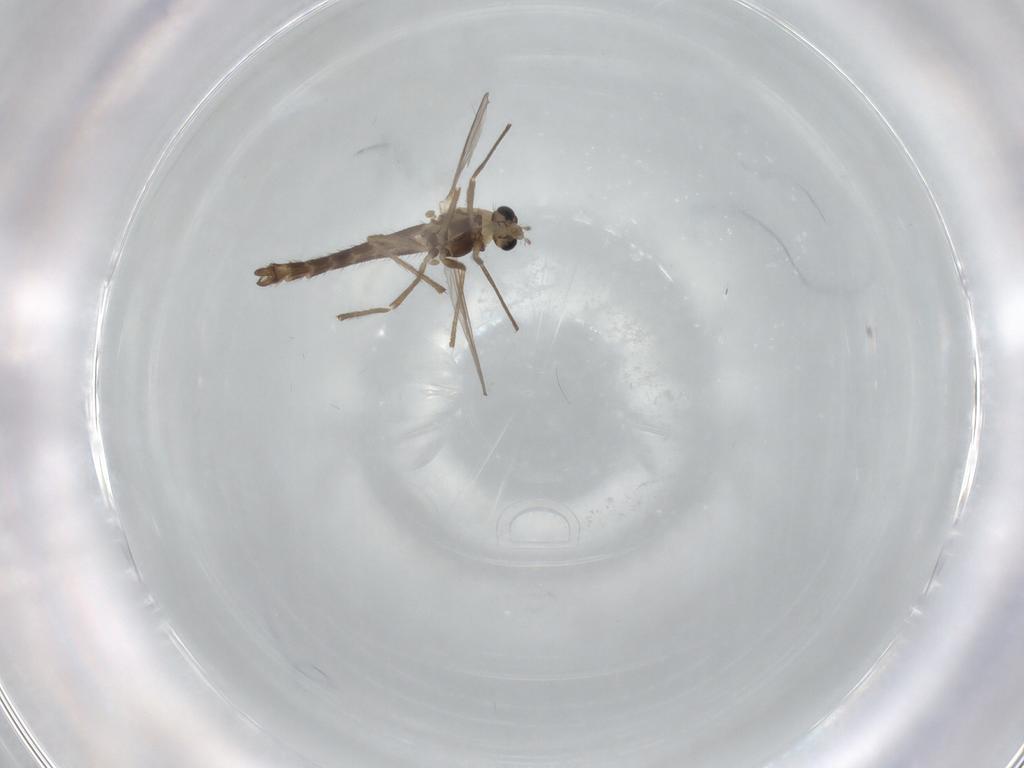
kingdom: Animalia
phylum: Arthropoda
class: Insecta
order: Diptera
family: Chironomidae
